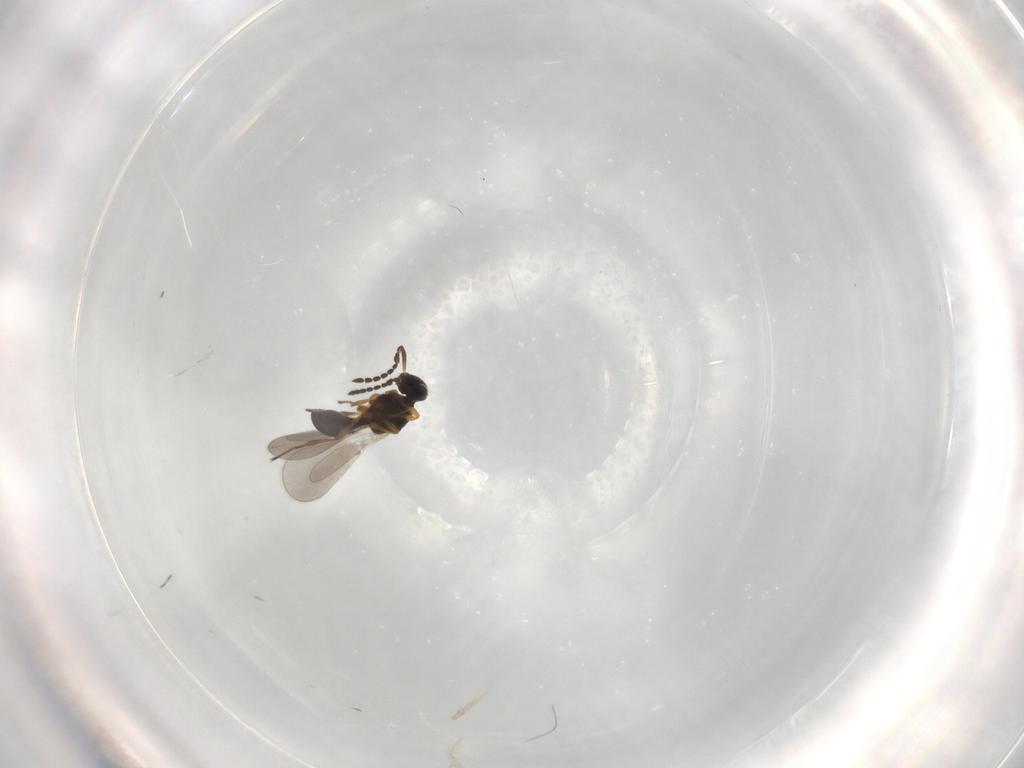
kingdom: Animalia
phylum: Arthropoda
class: Insecta
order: Hymenoptera
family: Platygastridae
